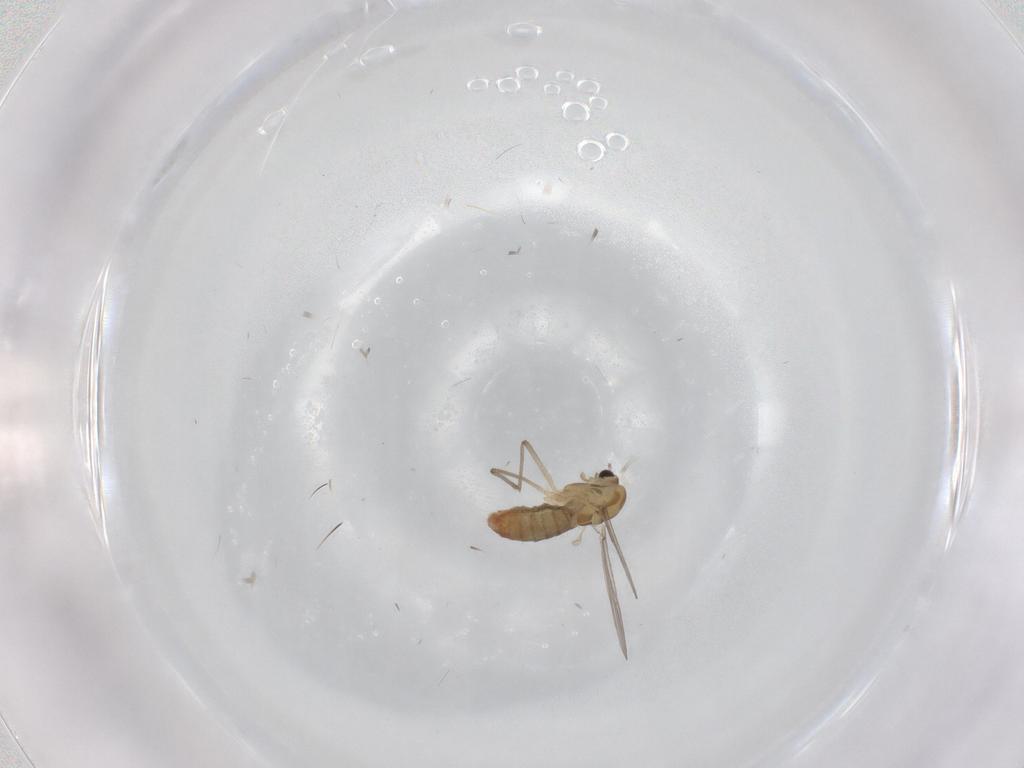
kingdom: Animalia
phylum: Arthropoda
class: Insecta
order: Diptera
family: Chironomidae
